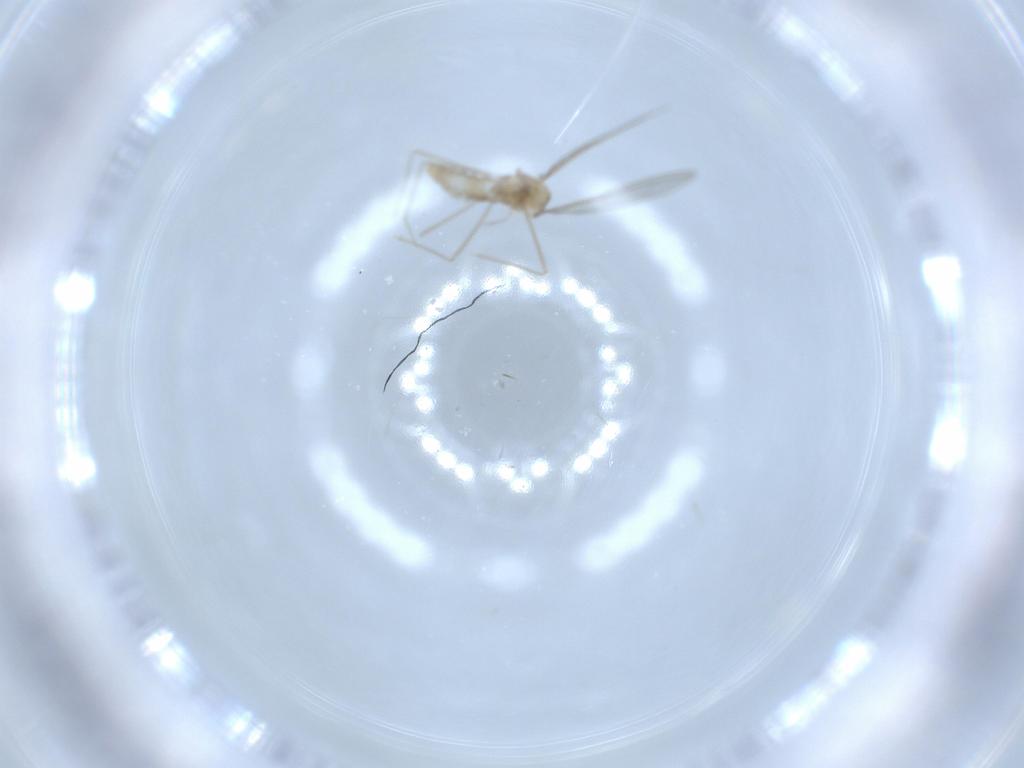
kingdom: Animalia
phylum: Arthropoda
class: Insecta
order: Diptera
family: Cecidomyiidae
